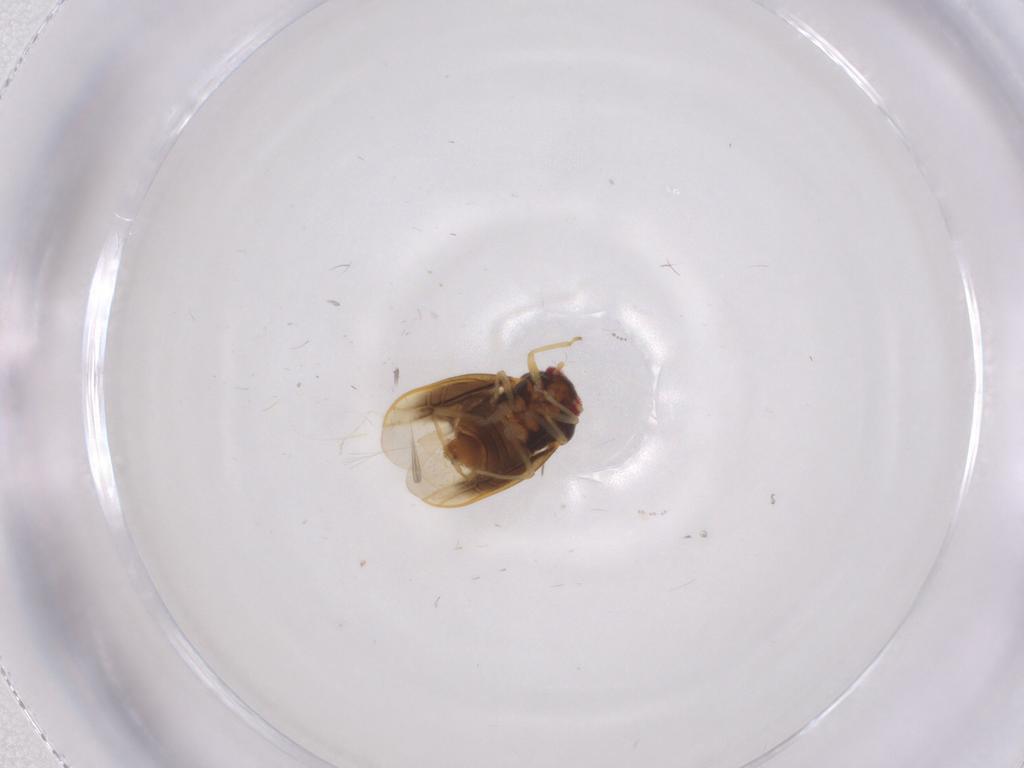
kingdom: Animalia
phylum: Arthropoda
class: Insecta
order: Hemiptera
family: Schizopteridae
